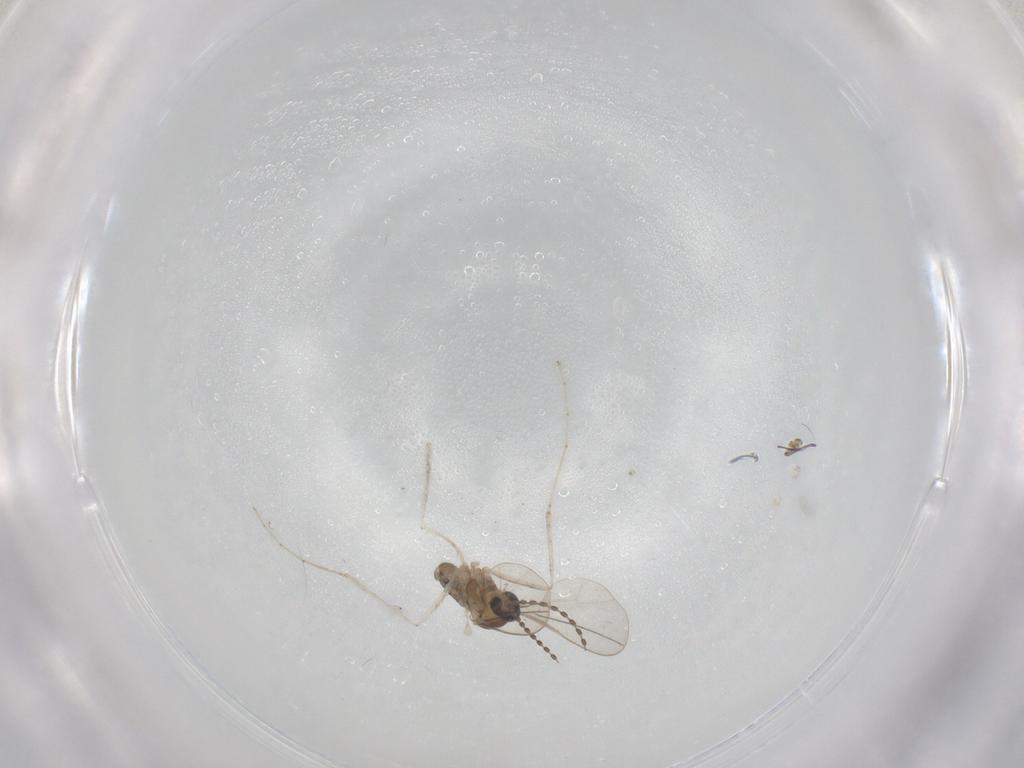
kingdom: Animalia
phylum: Arthropoda
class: Insecta
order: Diptera
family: Cecidomyiidae
